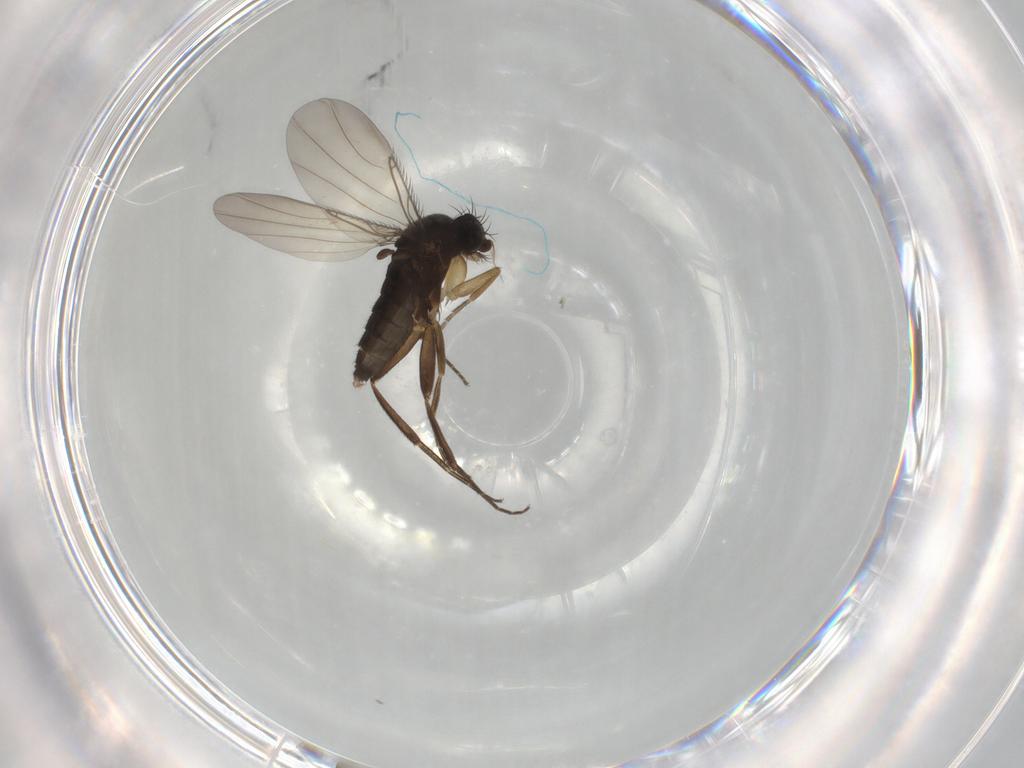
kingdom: Animalia
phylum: Arthropoda
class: Insecta
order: Diptera
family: Phoridae
